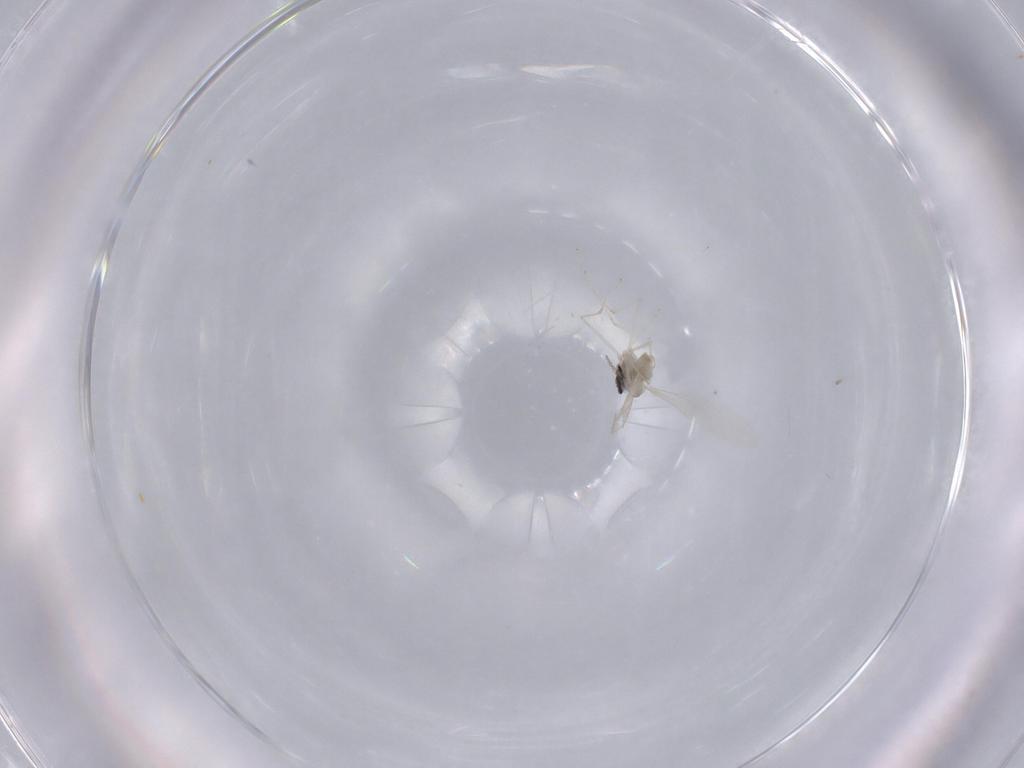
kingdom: Animalia
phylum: Arthropoda
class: Insecta
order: Diptera
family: Cecidomyiidae
